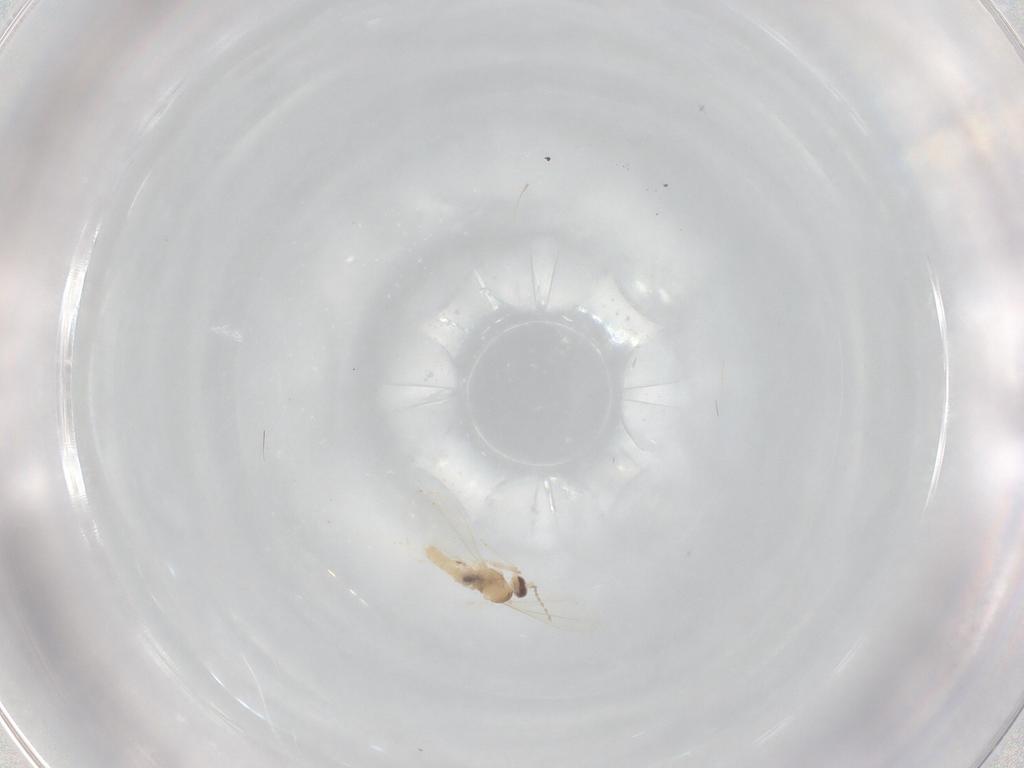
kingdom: Animalia
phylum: Arthropoda
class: Insecta
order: Diptera
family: Cecidomyiidae
